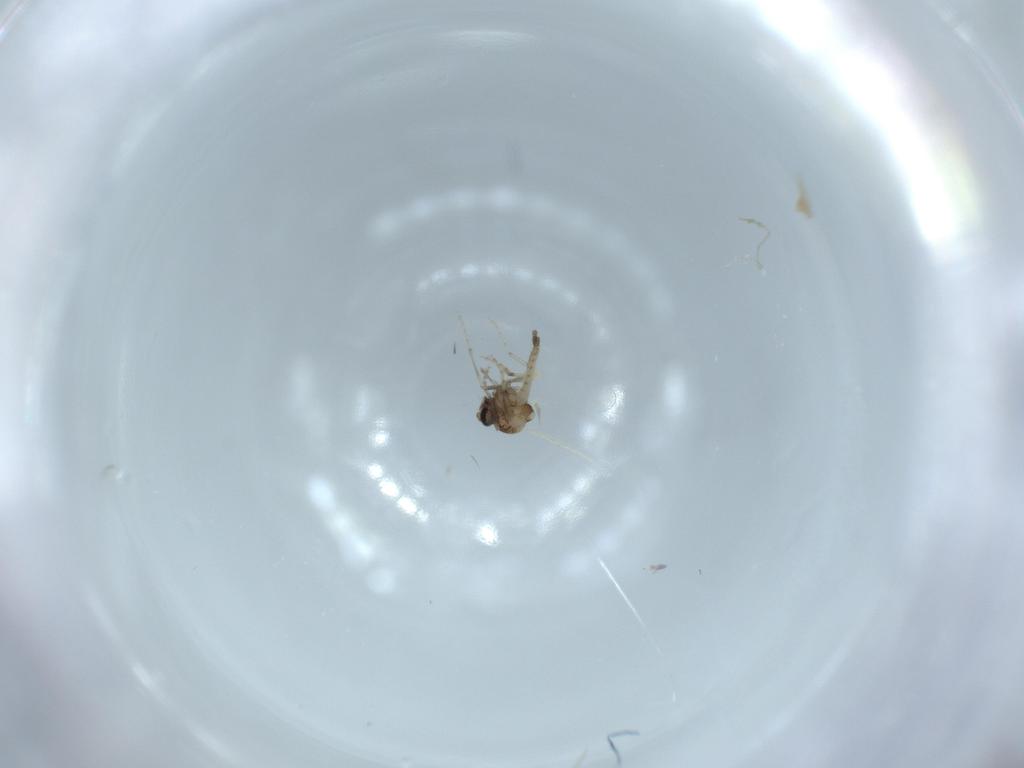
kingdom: Animalia
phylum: Arthropoda
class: Insecta
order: Diptera
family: Ceratopogonidae
